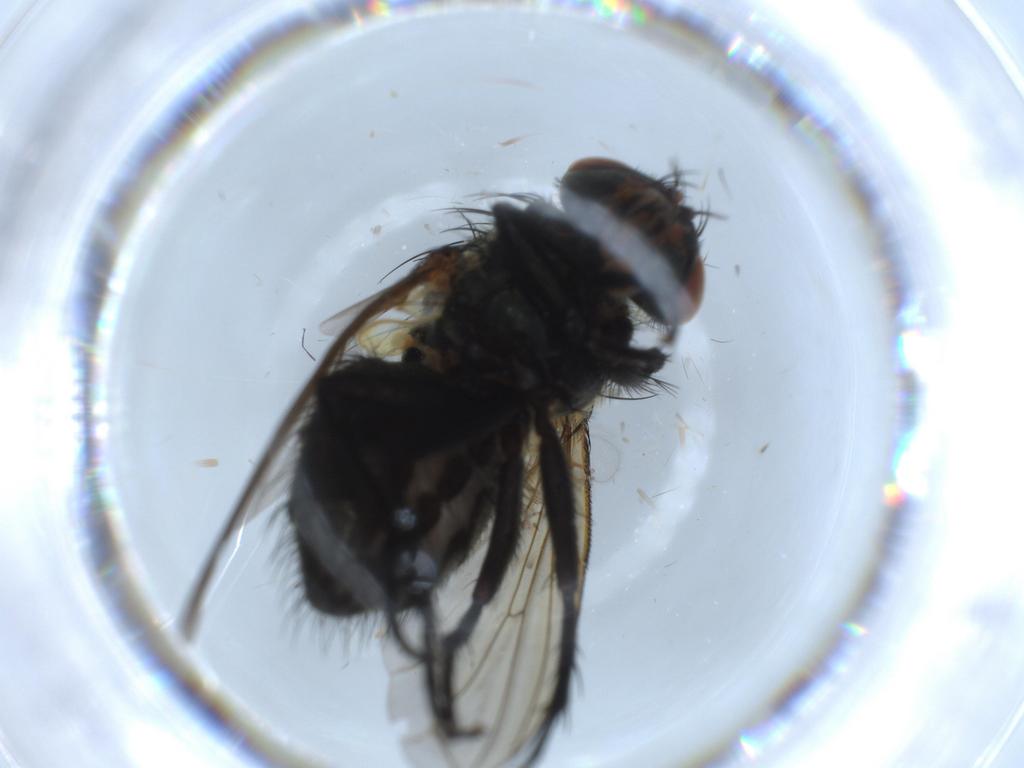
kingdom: Animalia
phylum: Arthropoda
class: Insecta
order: Diptera
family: Polleniidae
